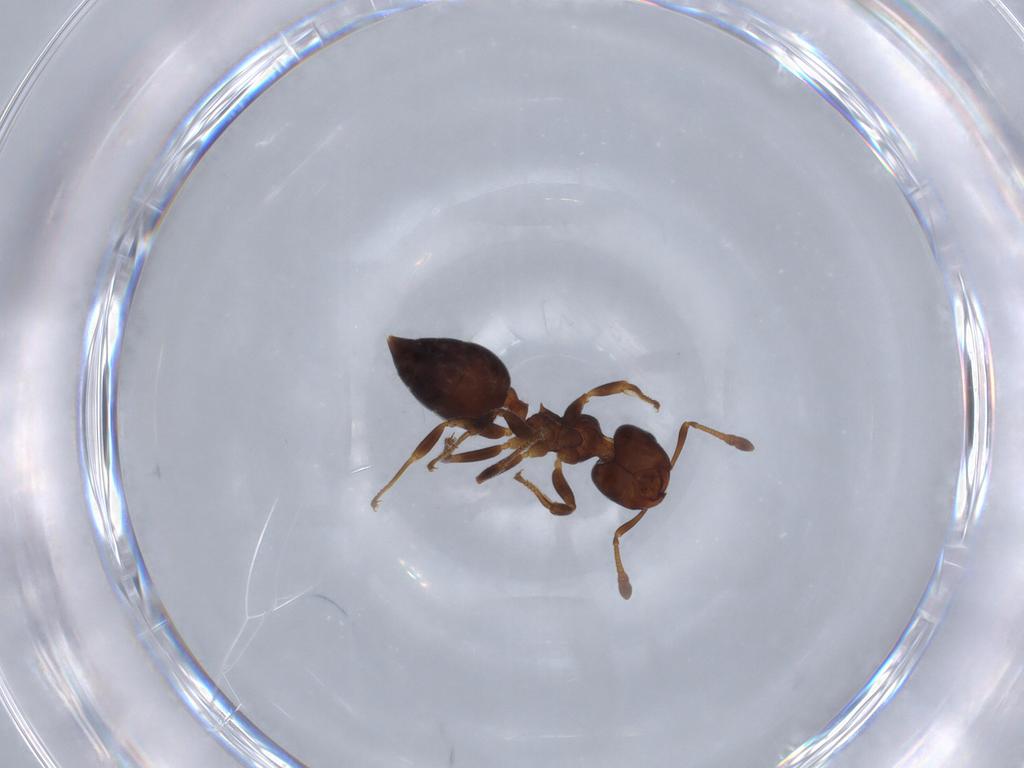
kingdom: Animalia
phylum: Arthropoda
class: Insecta
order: Hymenoptera
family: Formicidae
